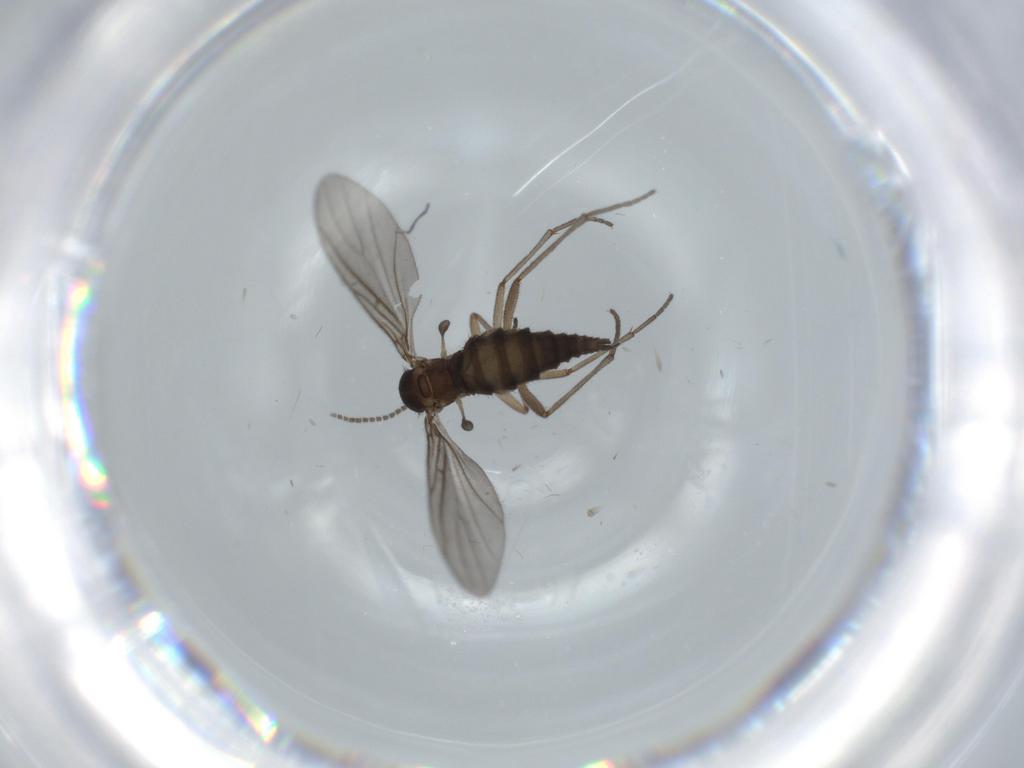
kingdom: Animalia
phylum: Arthropoda
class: Insecta
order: Diptera
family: Sciaridae
